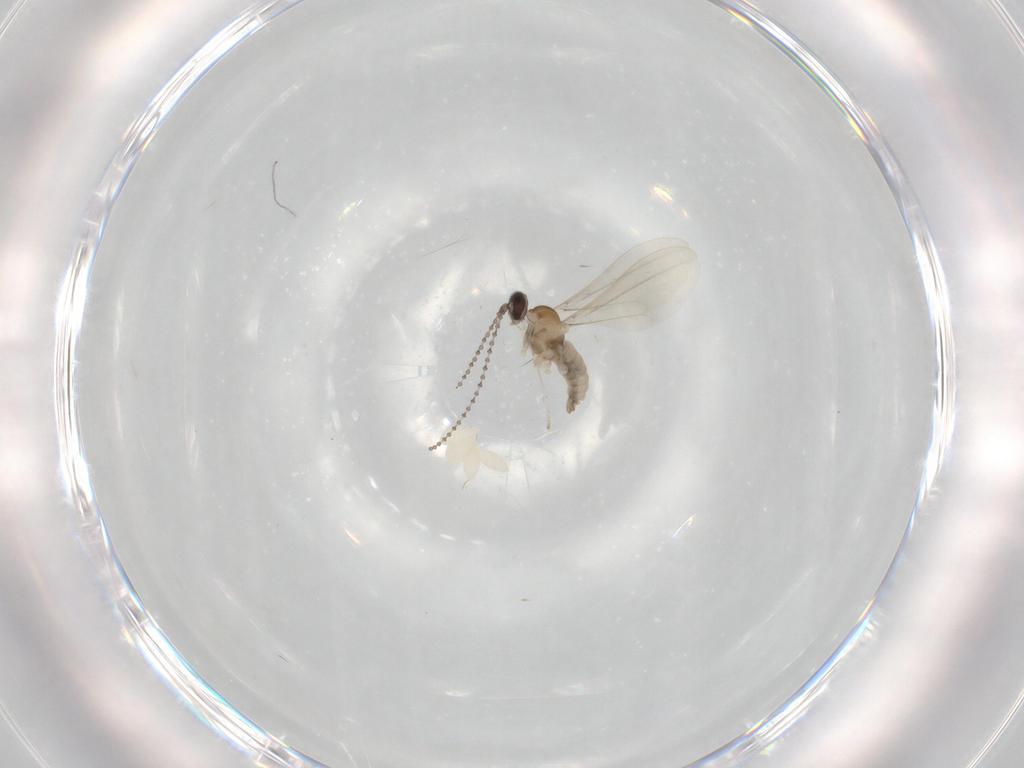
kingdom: Animalia
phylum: Arthropoda
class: Insecta
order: Diptera
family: Mycetophilidae
